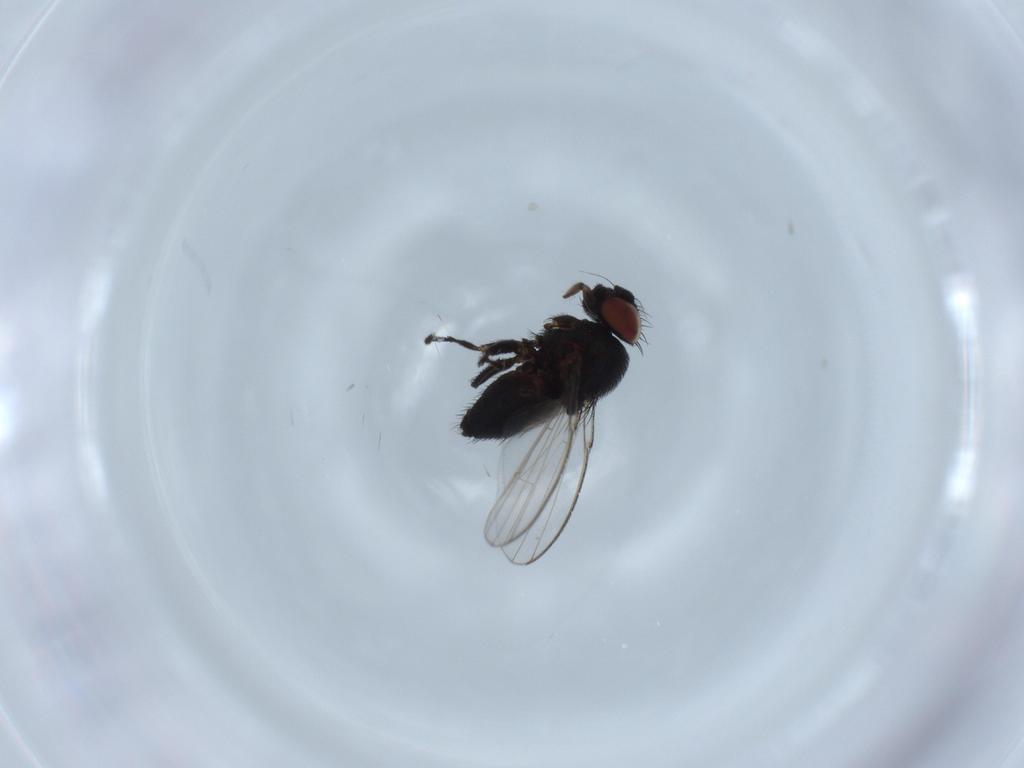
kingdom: Animalia
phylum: Arthropoda
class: Insecta
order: Diptera
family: Milichiidae
